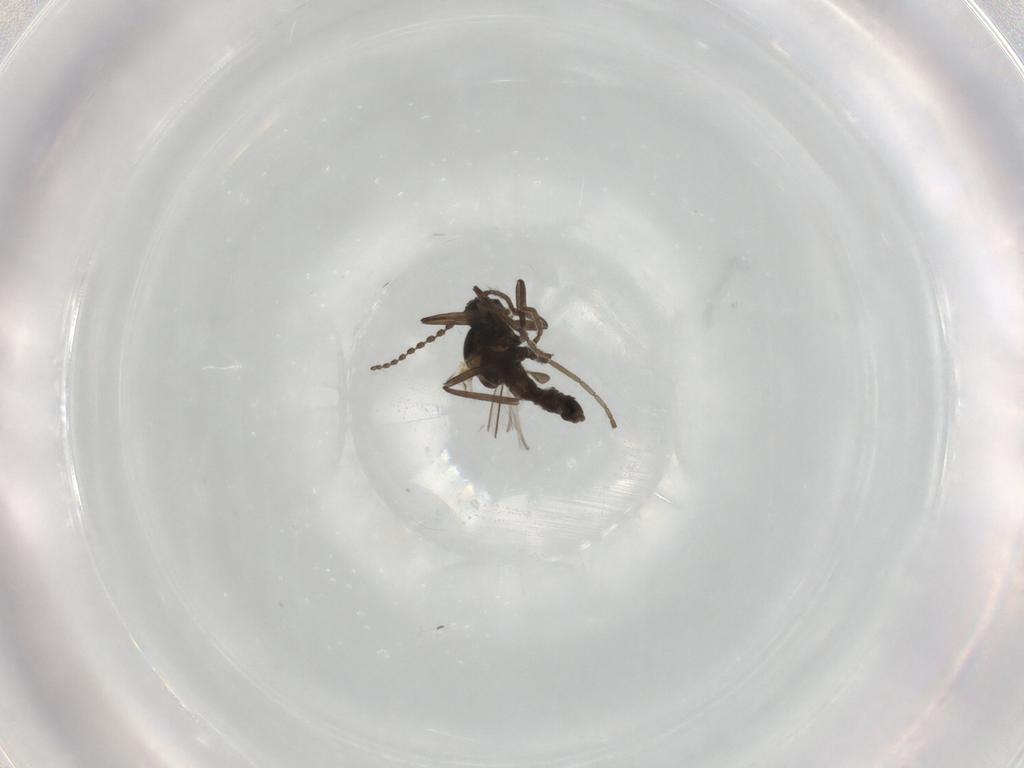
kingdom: Animalia
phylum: Arthropoda
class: Insecta
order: Diptera
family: Cecidomyiidae
